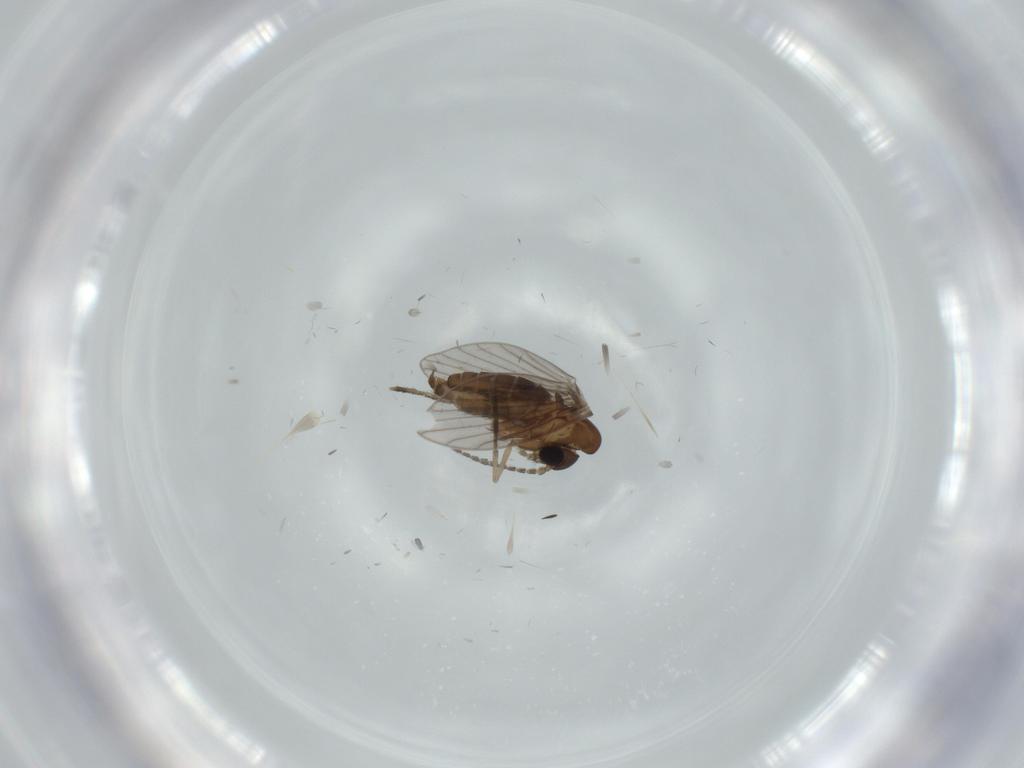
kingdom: Animalia
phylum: Arthropoda
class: Insecta
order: Diptera
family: Psychodidae
